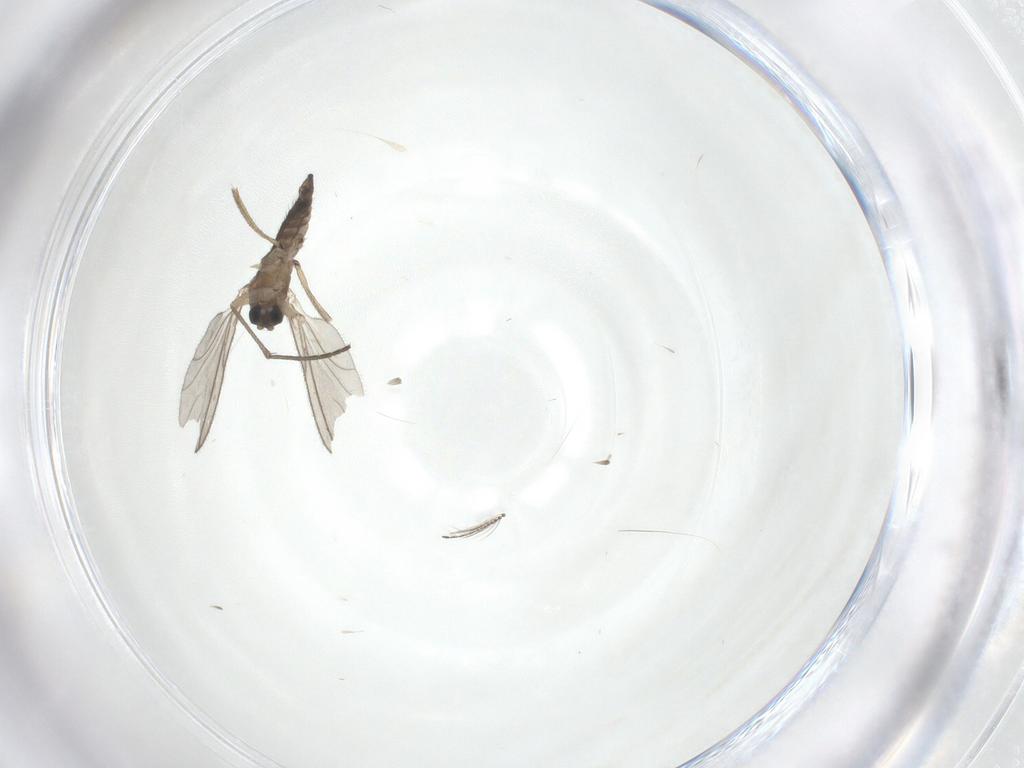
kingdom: Animalia
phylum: Arthropoda
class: Insecta
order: Diptera
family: Sciaridae
